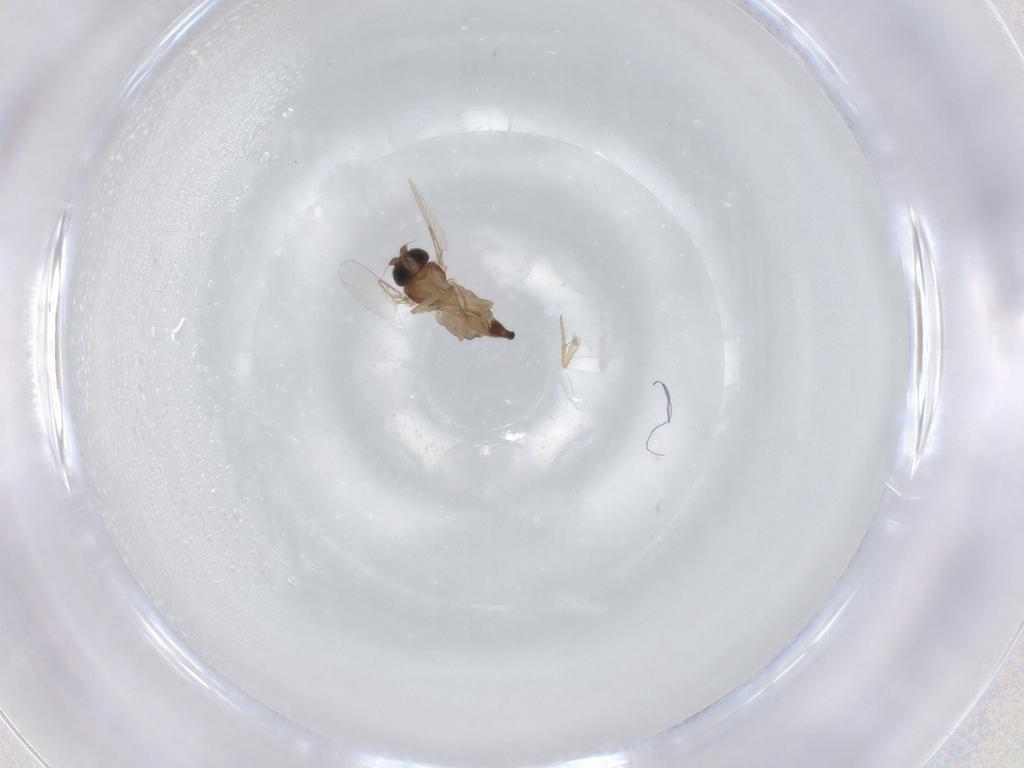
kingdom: Animalia
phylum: Arthropoda
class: Insecta
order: Diptera
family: Phoridae
